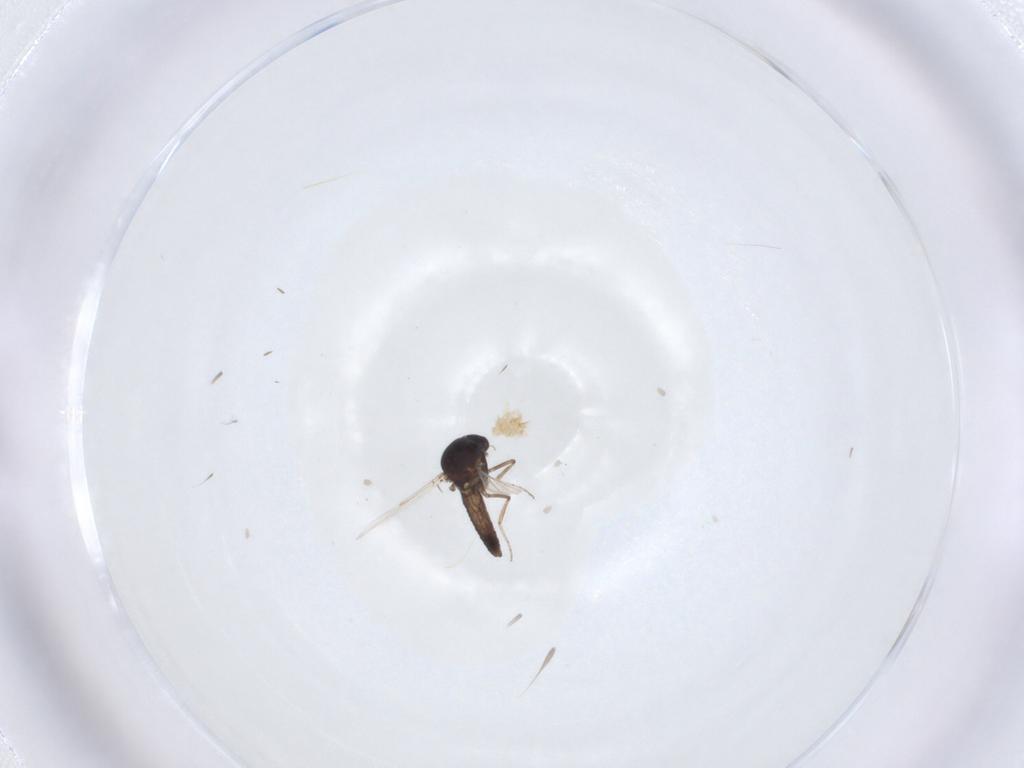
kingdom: Animalia
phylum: Arthropoda
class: Insecta
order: Diptera
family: Ceratopogonidae
